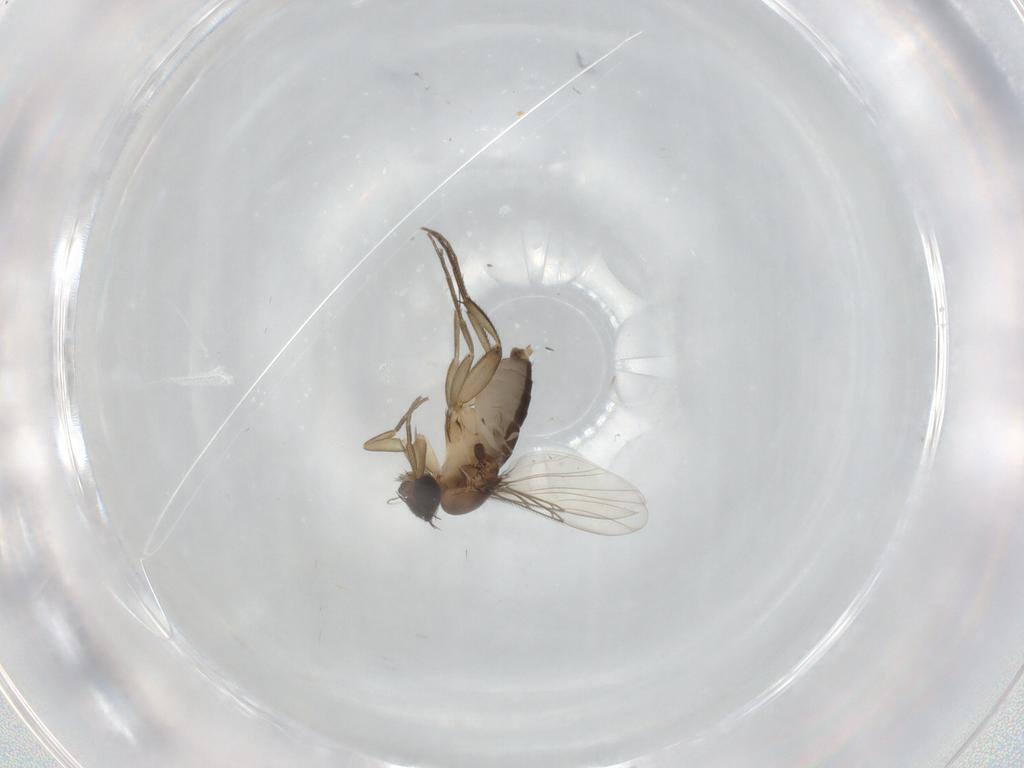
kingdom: Animalia
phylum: Arthropoda
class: Insecta
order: Diptera
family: Phoridae
